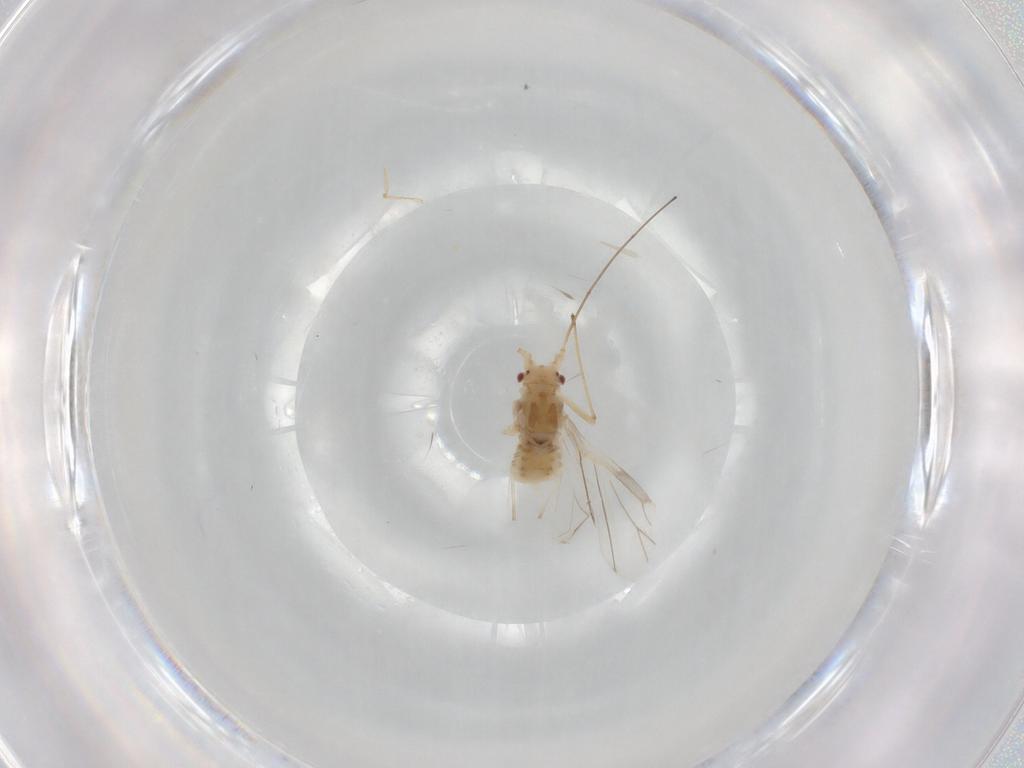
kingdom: Animalia
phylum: Arthropoda
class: Insecta
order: Hemiptera
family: Aphididae
